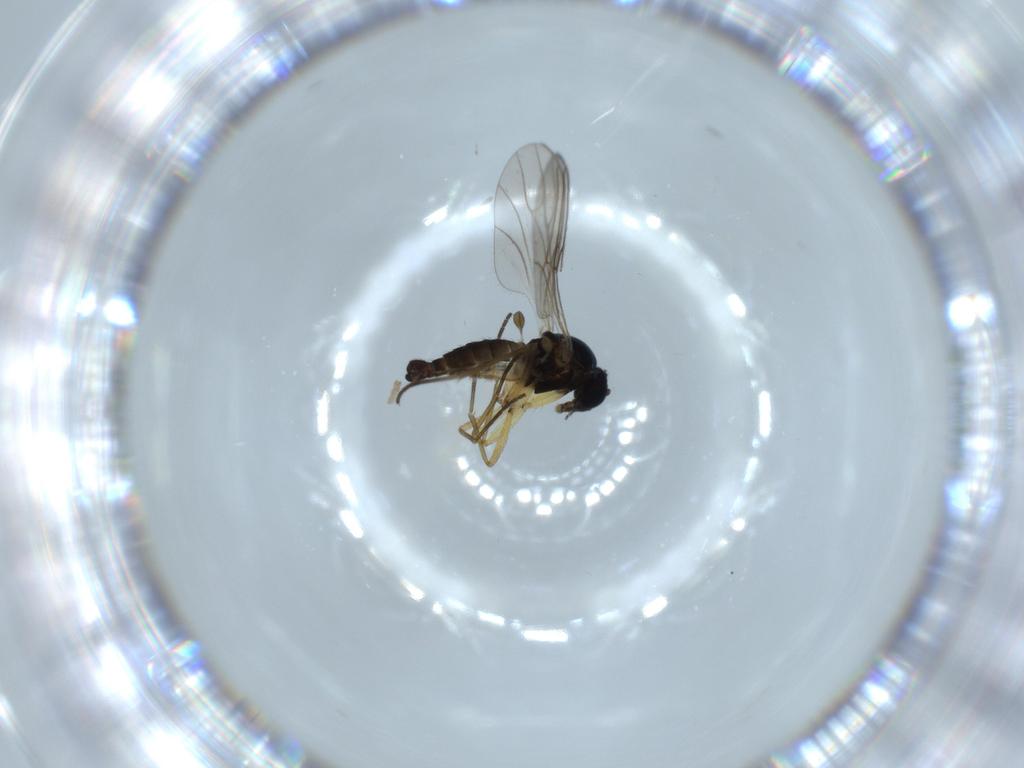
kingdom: Animalia
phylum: Arthropoda
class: Insecta
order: Diptera
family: Sciaridae
